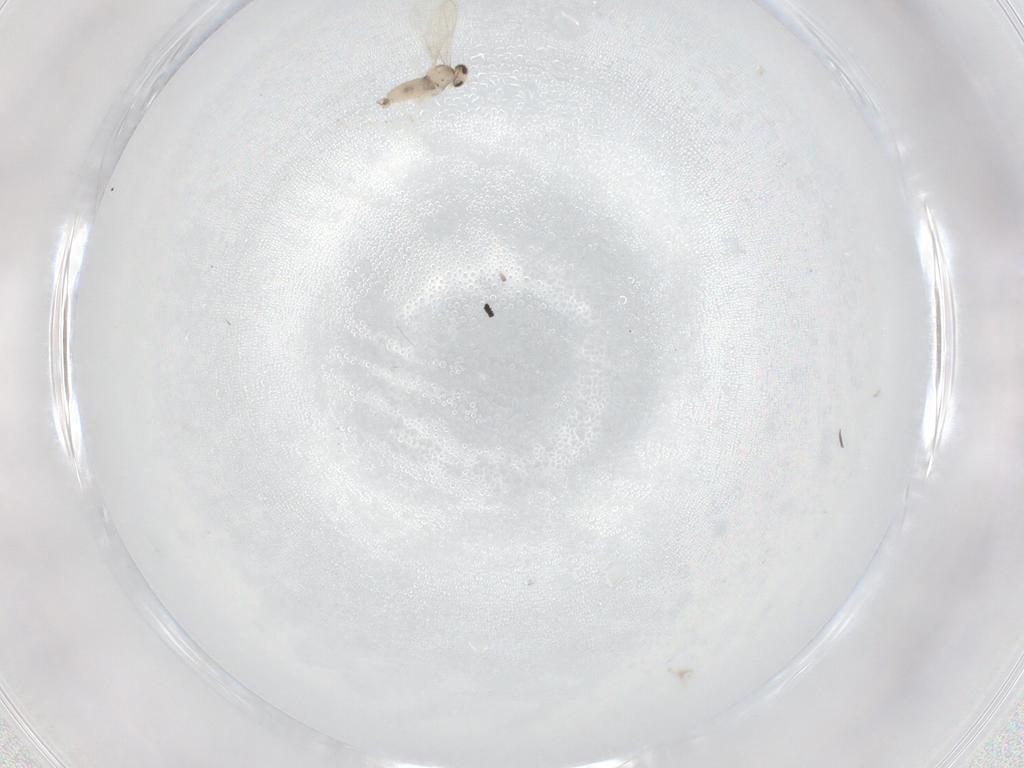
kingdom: Animalia
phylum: Arthropoda
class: Insecta
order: Diptera
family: Cecidomyiidae
